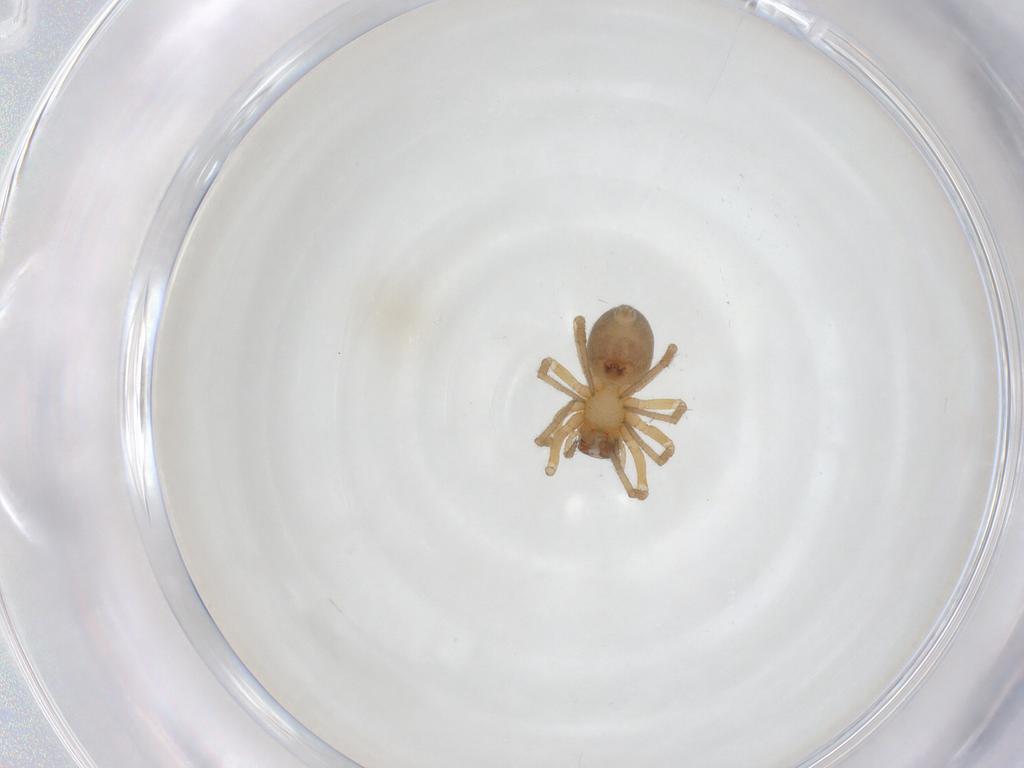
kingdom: Animalia
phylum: Arthropoda
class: Arachnida
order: Araneae
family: Linyphiidae
